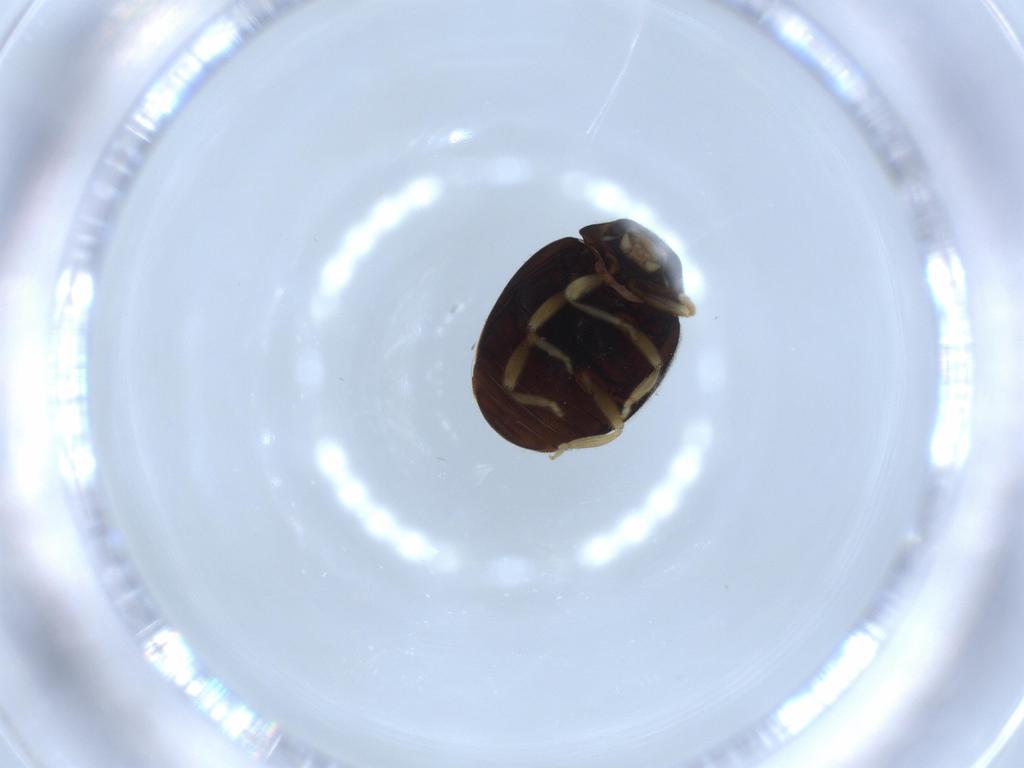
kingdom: Animalia
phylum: Arthropoda
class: Insecta
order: Coleoptera
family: Coccinellidae
